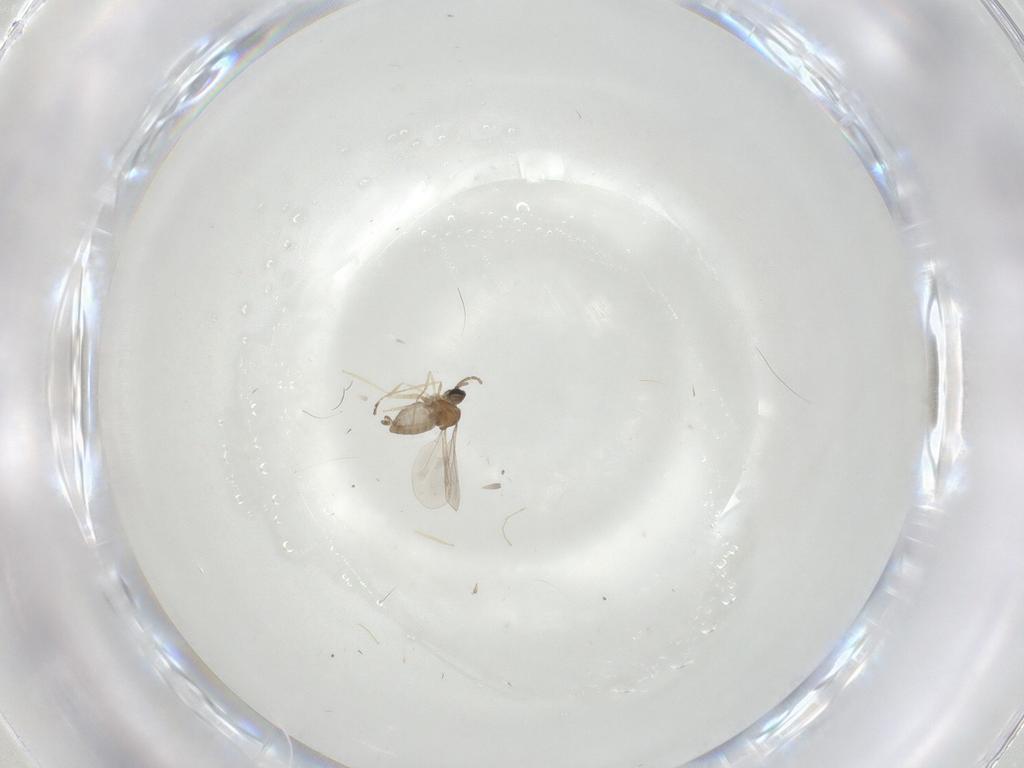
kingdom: Animalia
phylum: Arthropoda
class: Insecta
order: Diptera
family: Cecidomyiidae
